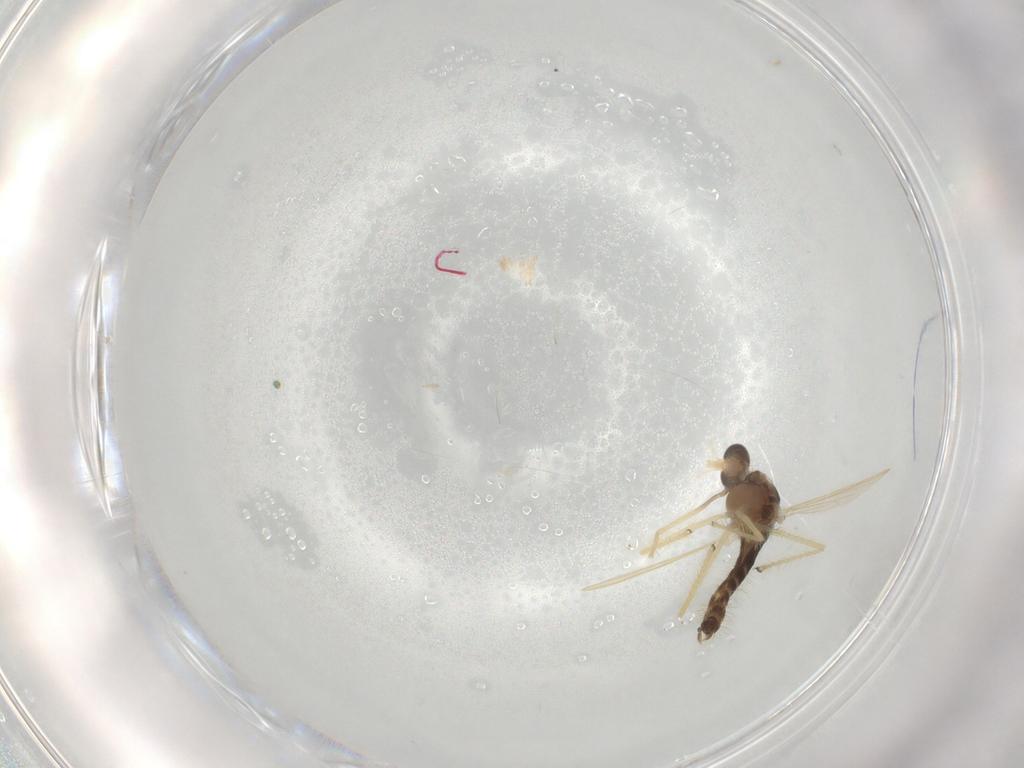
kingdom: Animalia
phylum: Arthropoda
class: Insecta
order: Diptera
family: Chironomidae
